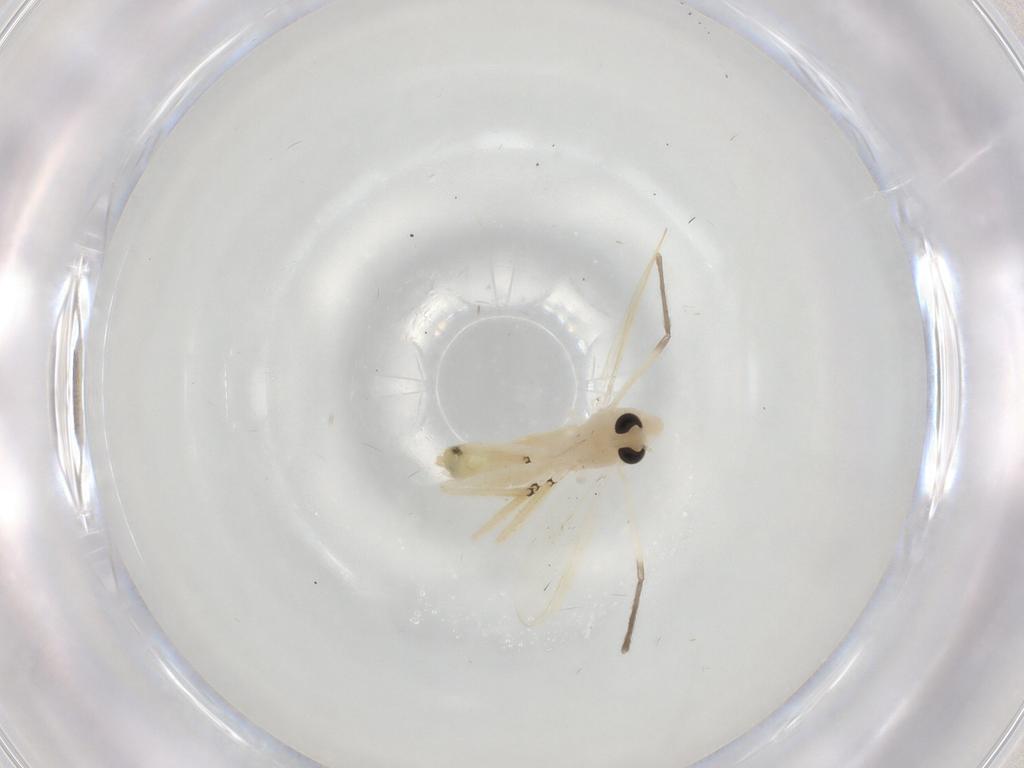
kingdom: Animalia
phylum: Arthropoda
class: Insecta
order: Diptera
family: Chironomidae
